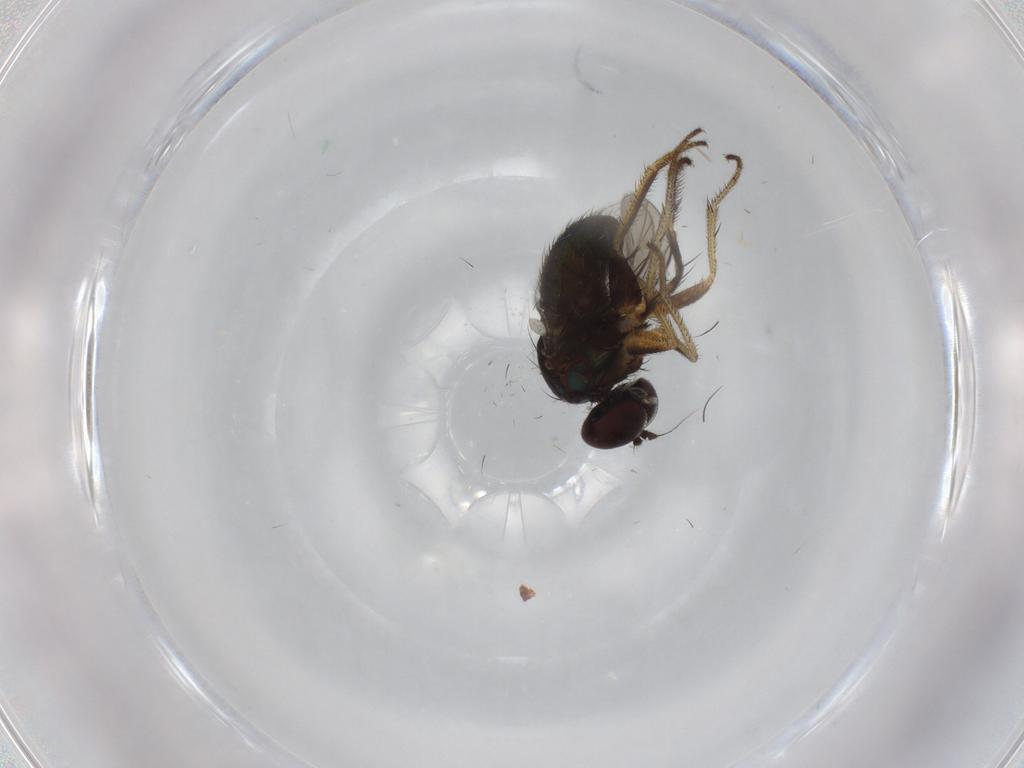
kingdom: Animalia
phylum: Arthropoda
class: Insecta
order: Diptera
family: Dolichopodidae
